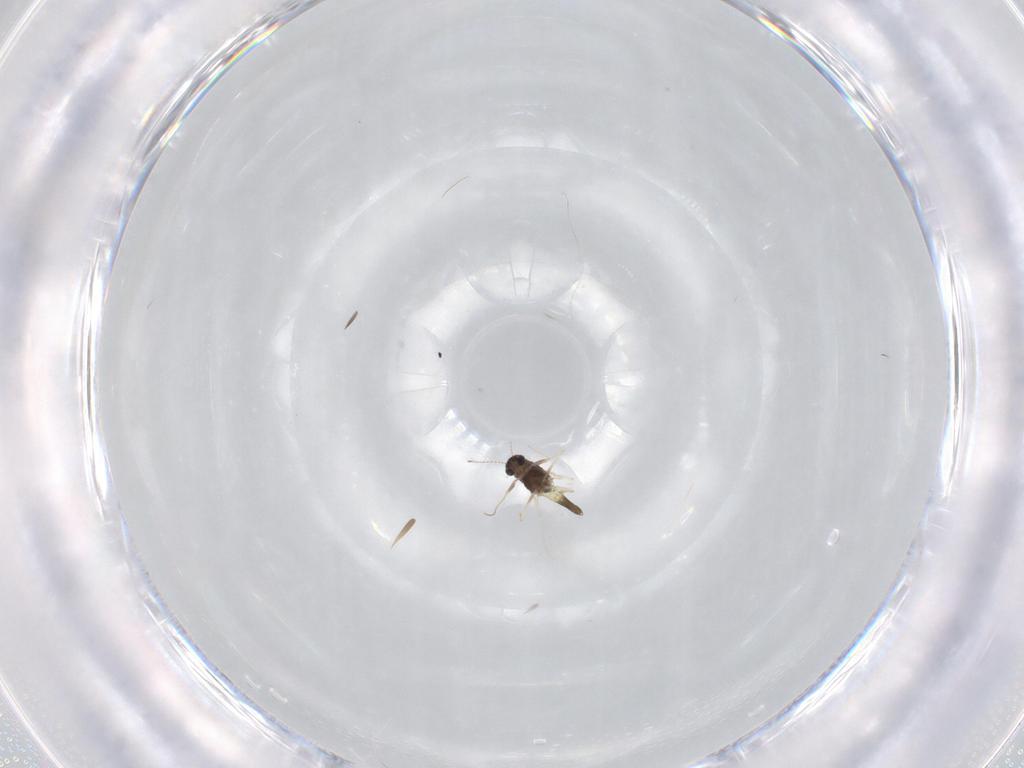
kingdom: Animalia
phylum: Arthropoda
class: Insecta
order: Diptera
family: Chironomidae
